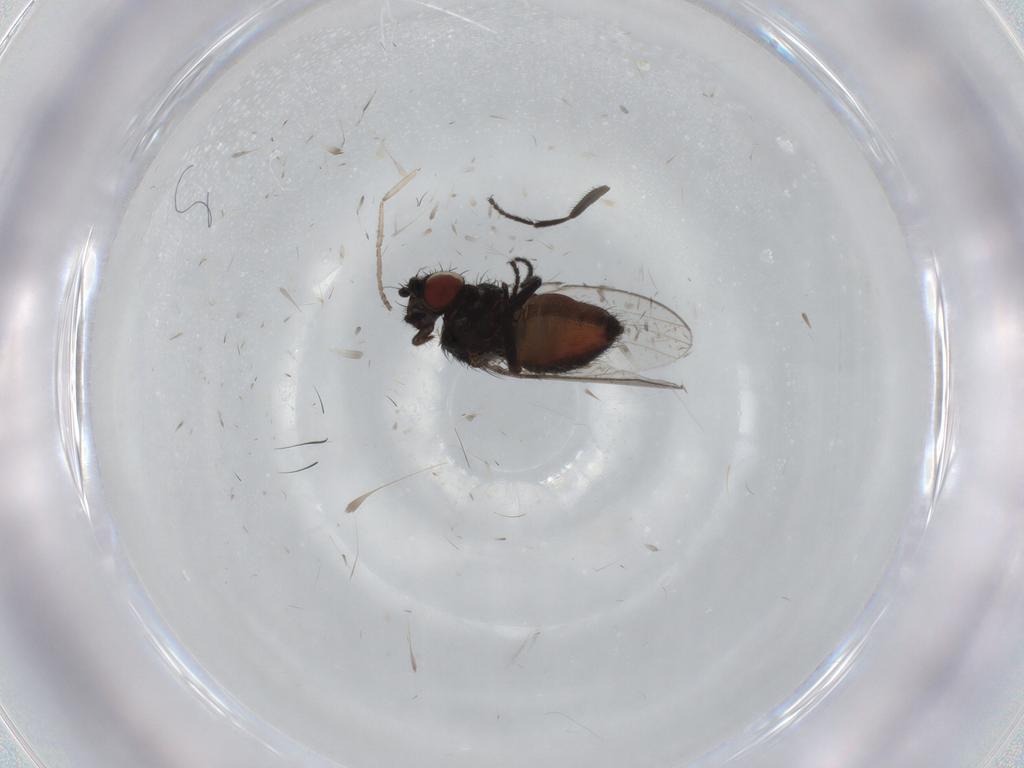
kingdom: Animalia
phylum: Arthropoda
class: Insecta
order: Diptera
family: Psychodidae
